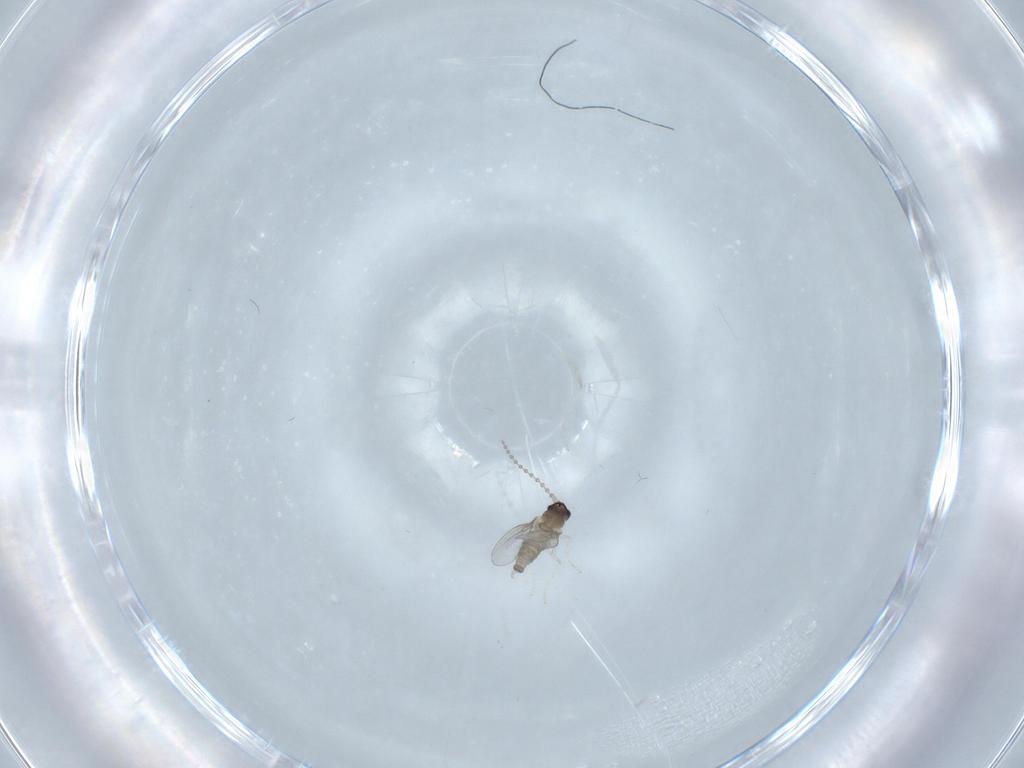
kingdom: Animalia
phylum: Arthropoda
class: Insecta
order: Diptera
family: Cecidomyiidae
